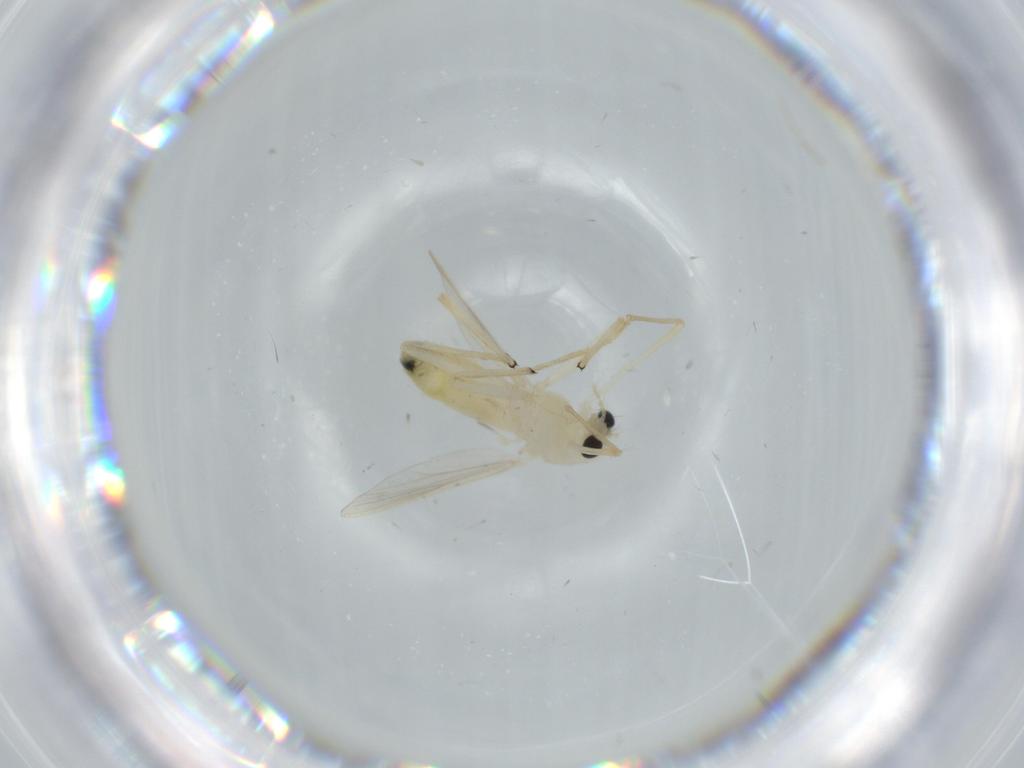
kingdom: Animalia
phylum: Arthropoda
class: Insecta
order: Diptera
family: Chironomidae
